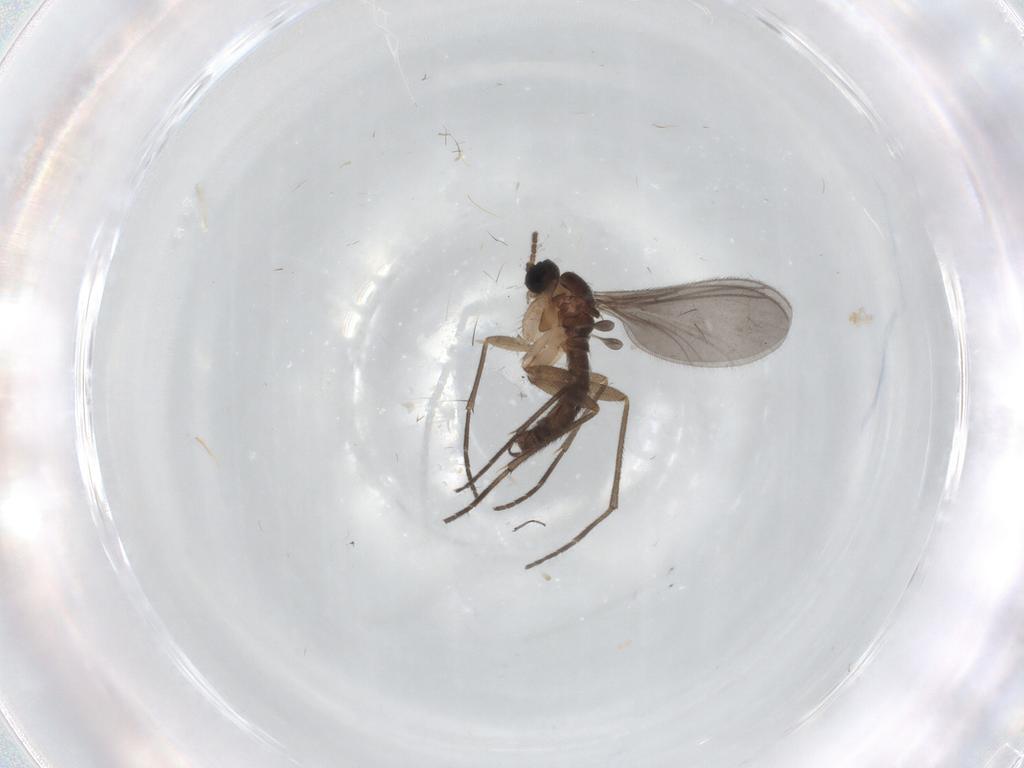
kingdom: Animalia
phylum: Arthropoda
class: Insecta
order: Diptera
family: Sciaridae
